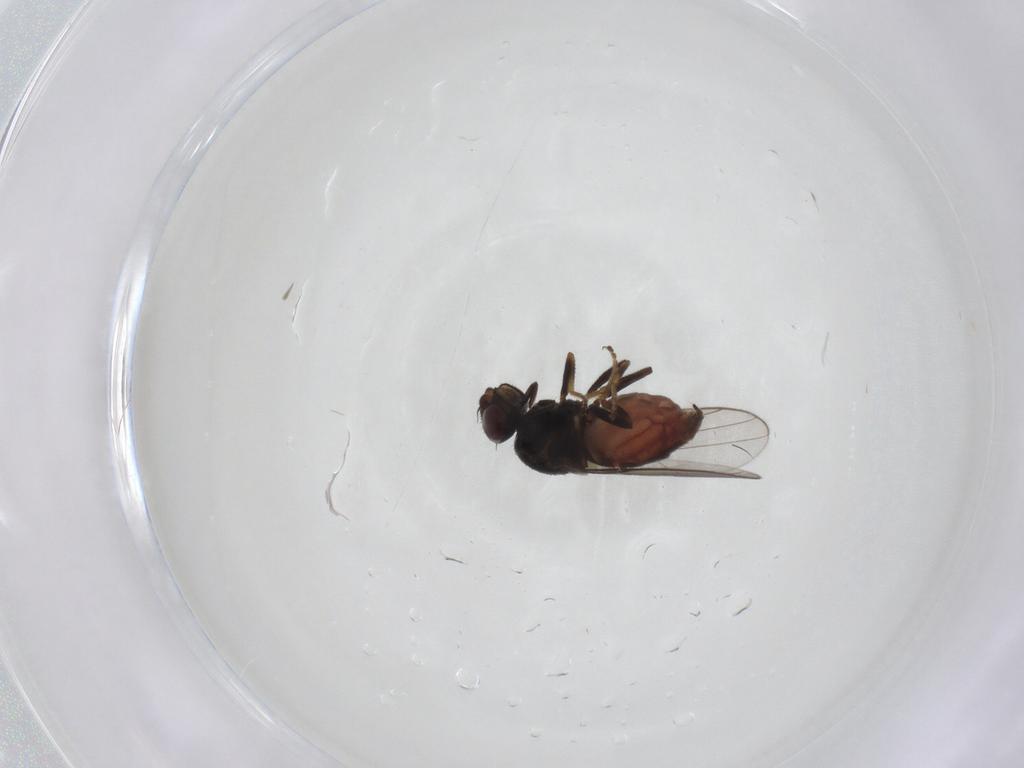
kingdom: Animalia
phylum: Arthropoda
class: Insecta
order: Diptera
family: Chloropidae
